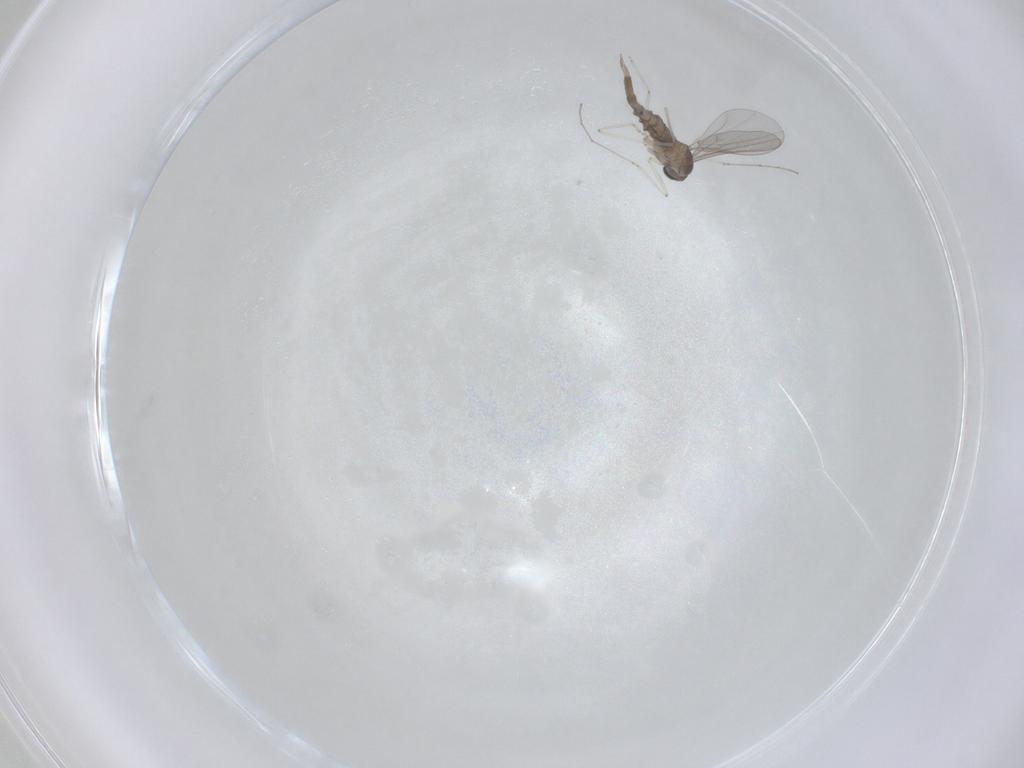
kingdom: Animalia
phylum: Arthropoda
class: Insecta
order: Diptera
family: Cecidomyiidae
